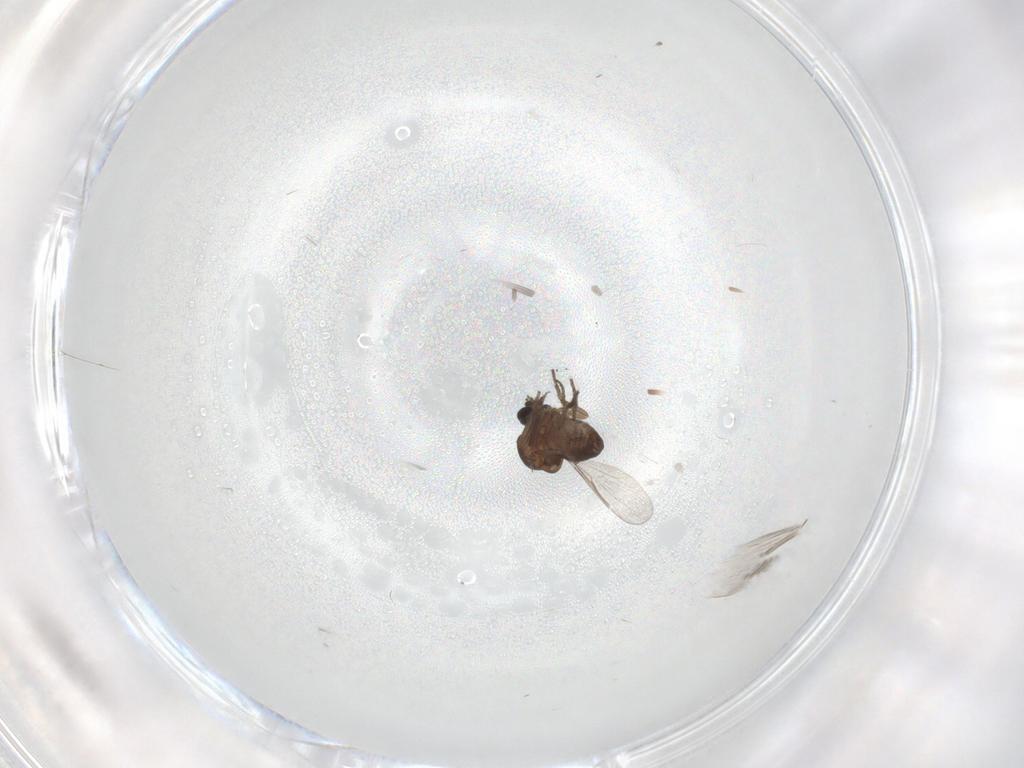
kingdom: Animalia
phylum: Arthropoda
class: Insecta
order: Diptera
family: Ceratopogonidae
